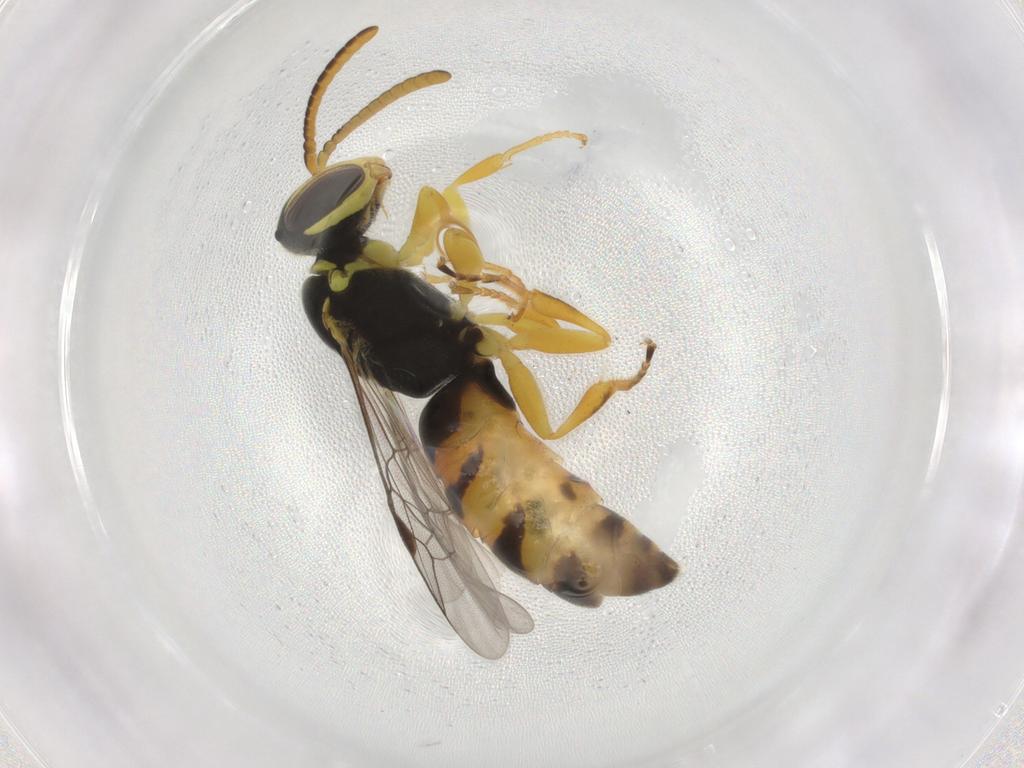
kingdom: Animalia
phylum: Arthropoda
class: Insecta
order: Hymenoptera
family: Colletidae
